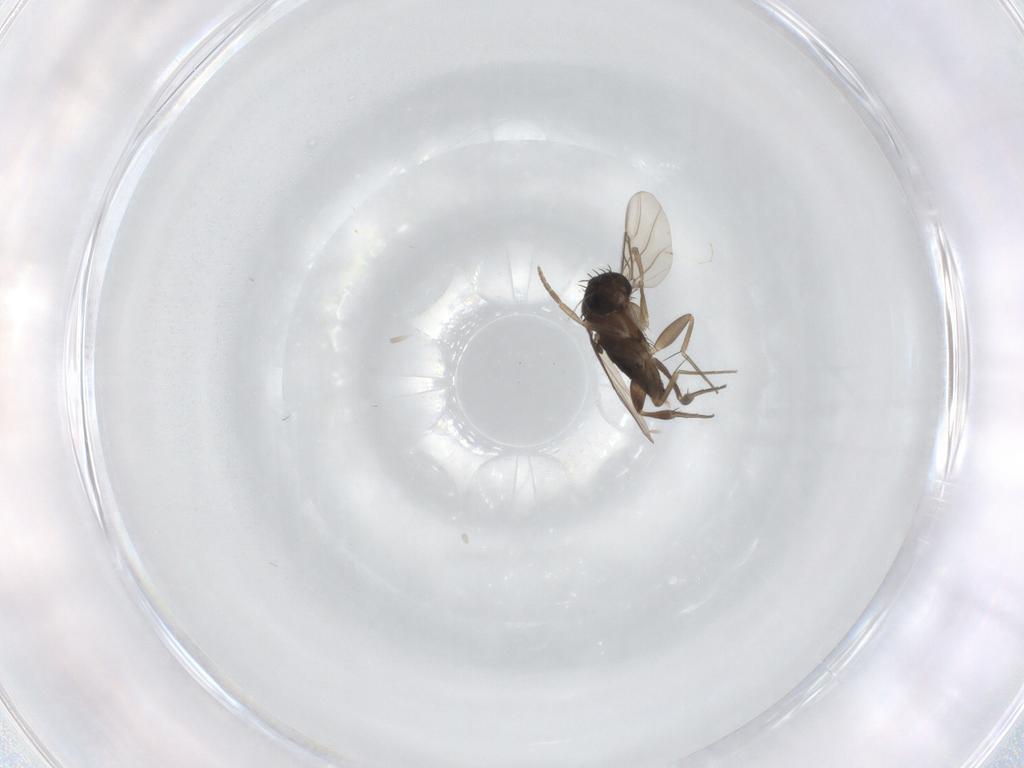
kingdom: Animalia
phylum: Arthropoda
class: Insecta
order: Diptera
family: Phoridae
